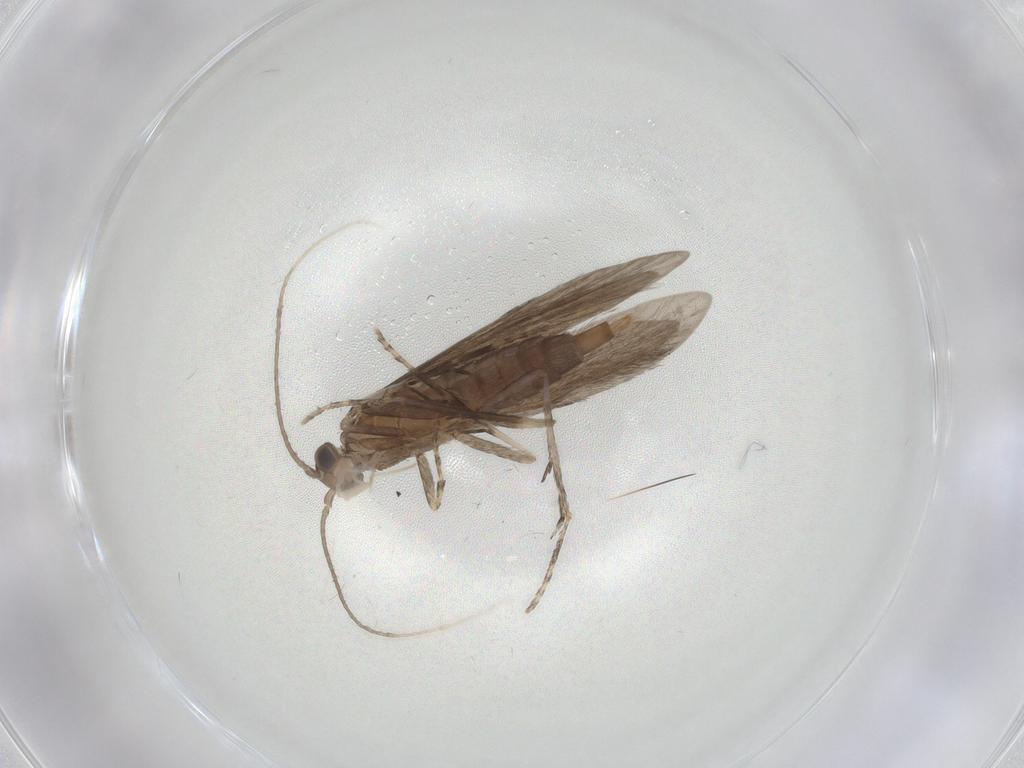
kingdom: Animalia
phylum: Arthropoda
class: Insecta
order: Trichoptera
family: Xiphocentronidae
